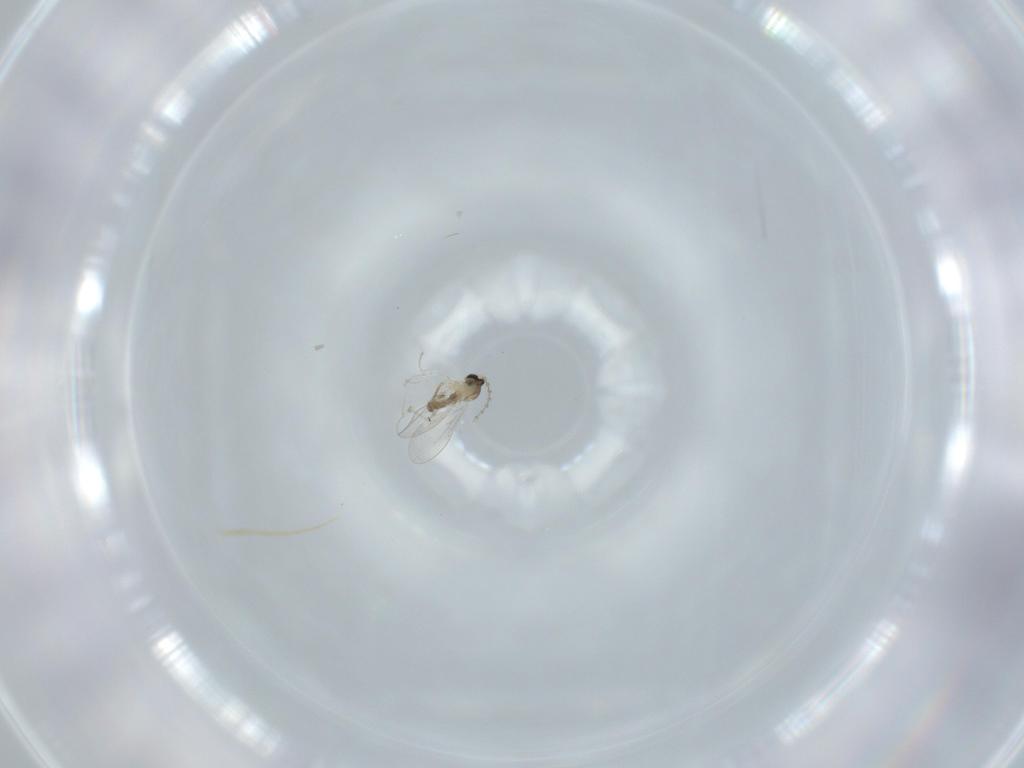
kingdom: Animalia
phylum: Arthropoda
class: Insecta
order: Diptera
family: Cecidomyiidae
